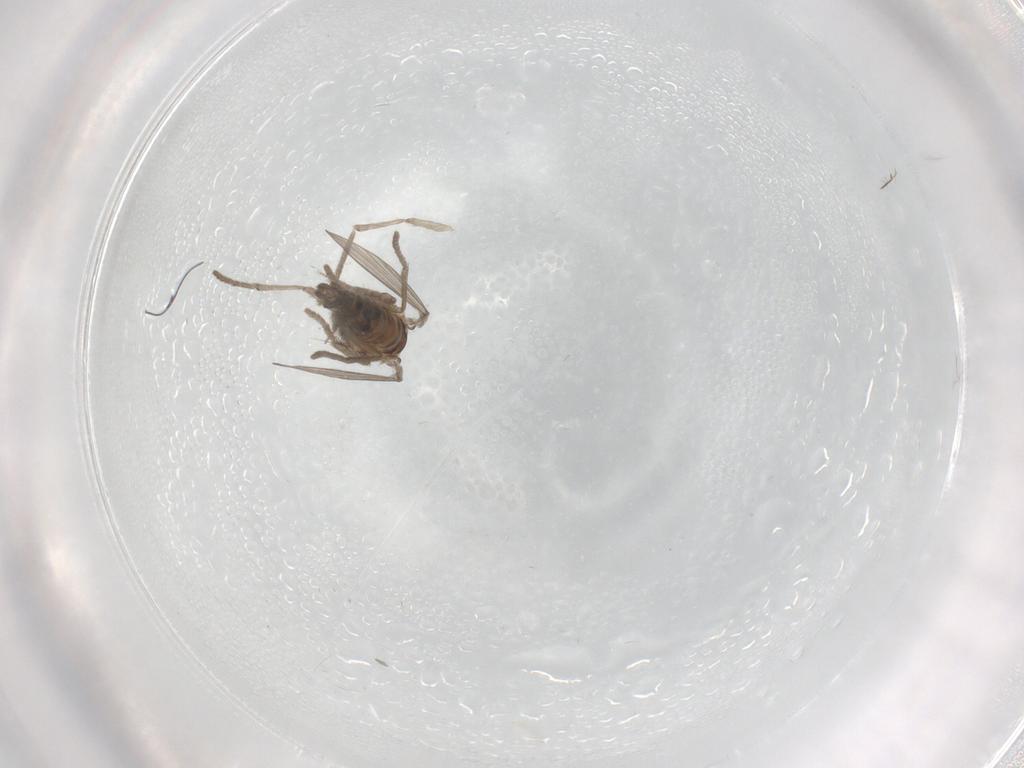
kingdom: Animalia
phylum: Arthropoda
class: Insecta
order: Diptera
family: Psychodidae
